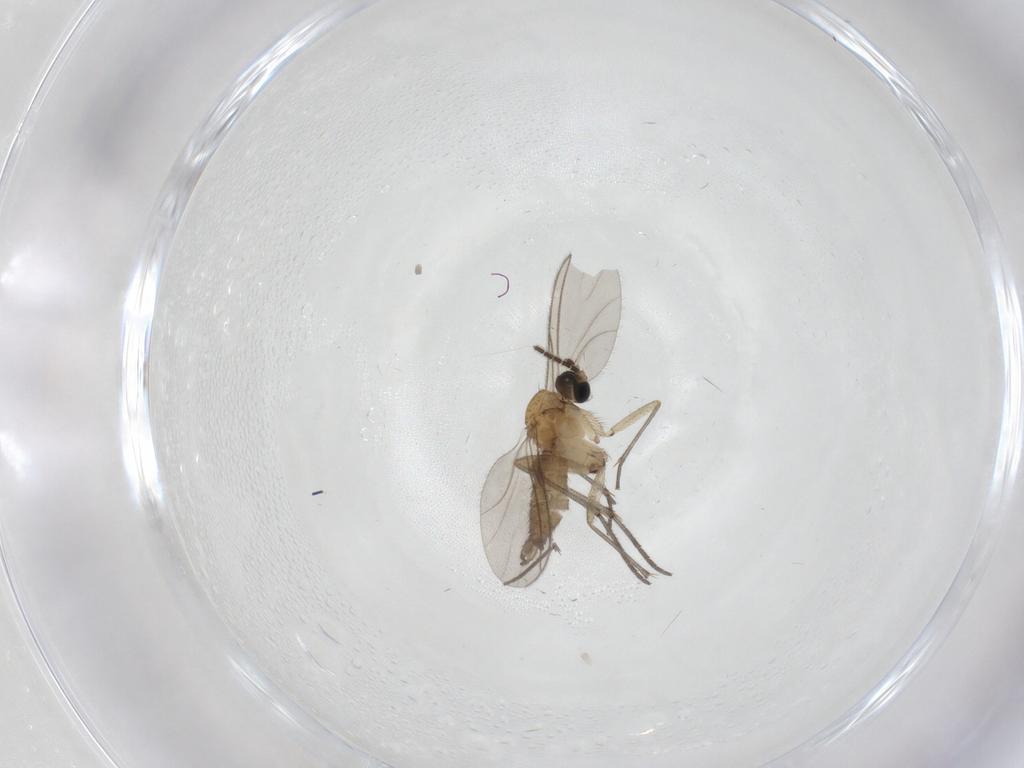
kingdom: Animalia
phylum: Arthropoda
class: Insecta
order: Diptera
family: Sciaridae
